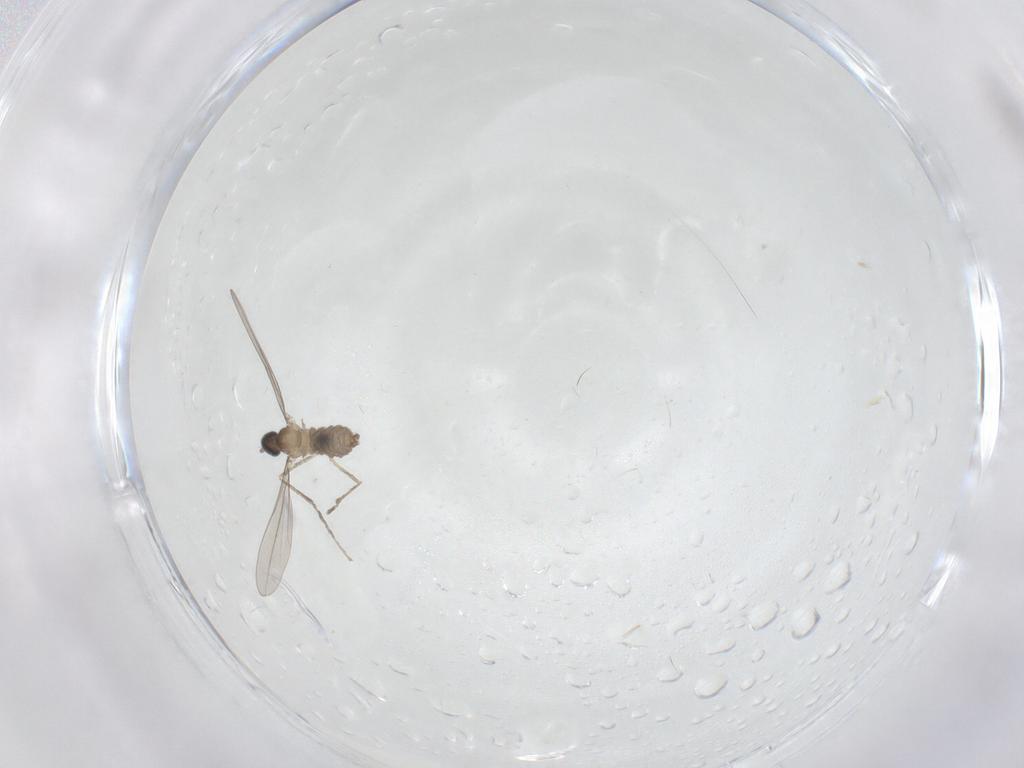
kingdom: Animalia
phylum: Arthropoda
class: Insecta
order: Diptera
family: Cecidomyiidae
